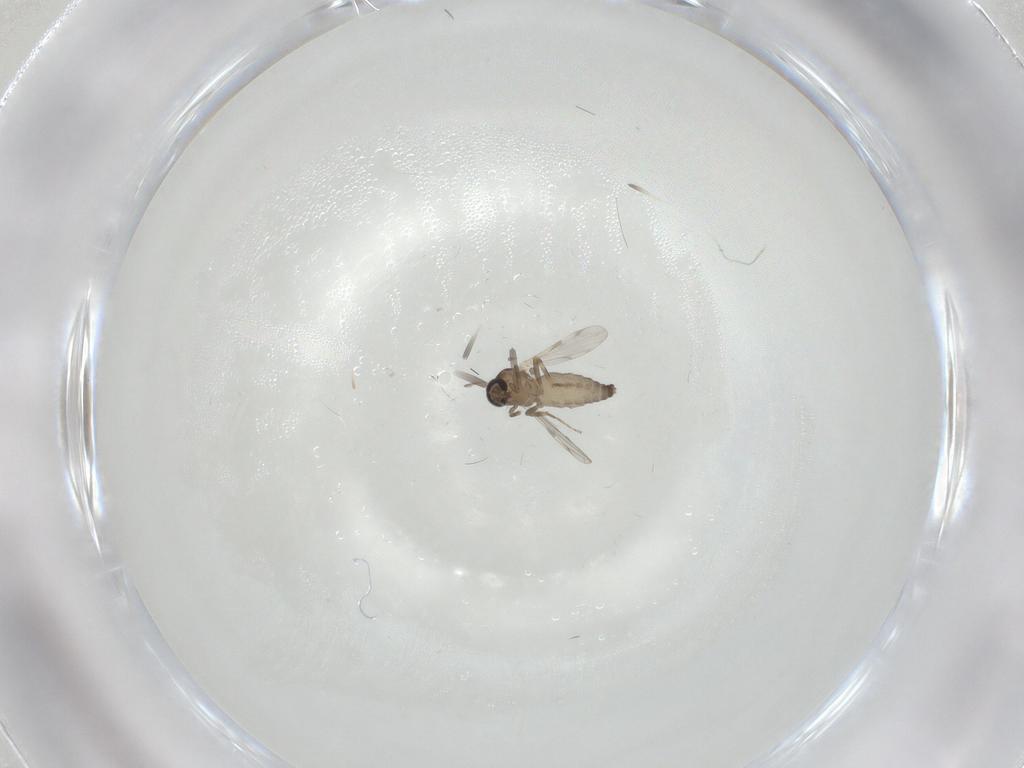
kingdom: Animalia
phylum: Arthropoda
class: Insecta
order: Diptera
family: Ceratopogonidae
